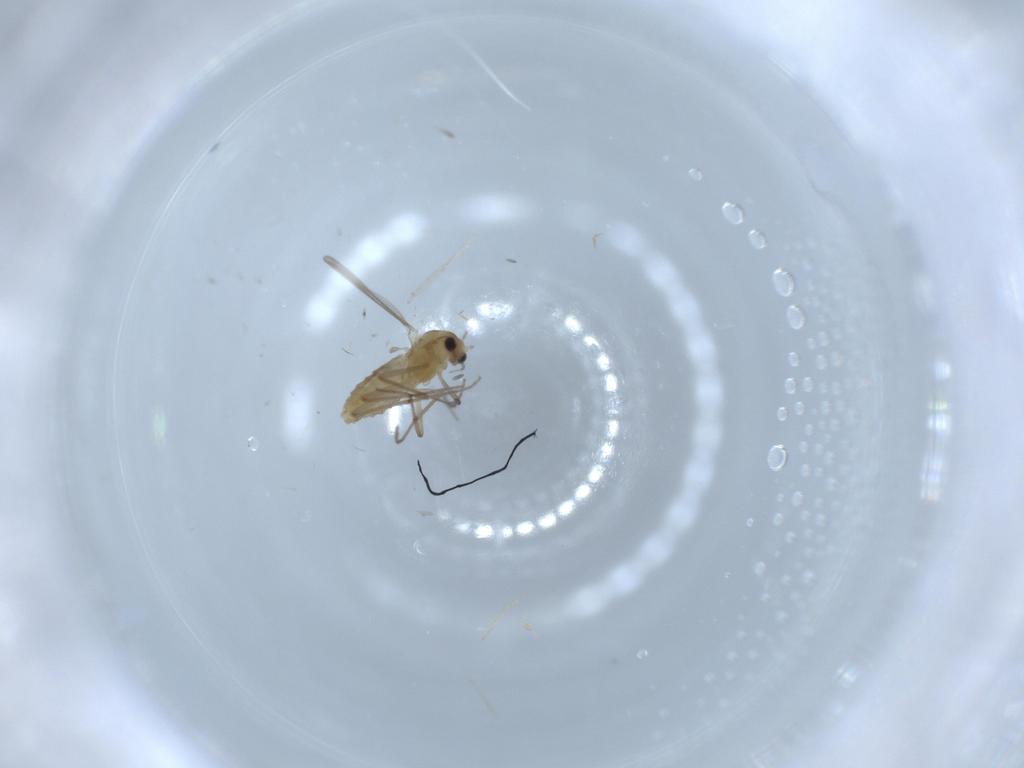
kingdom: Animalia
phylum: Arthropoda
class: Insecta
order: Diptera
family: Chironomidae
